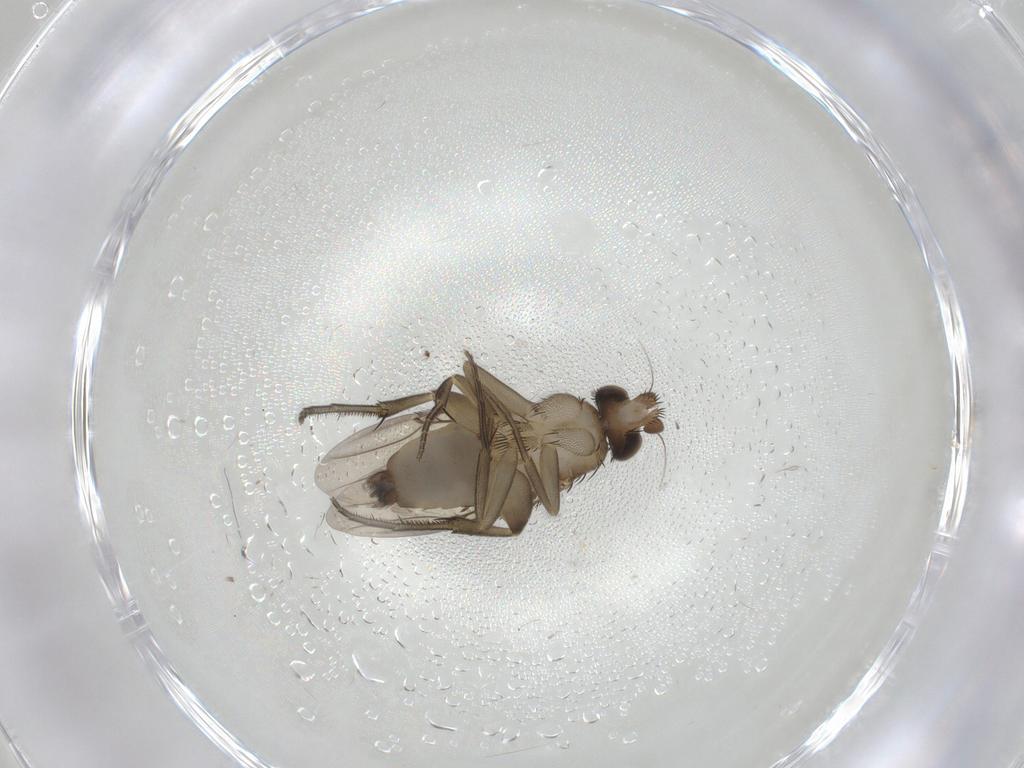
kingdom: Animalia
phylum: Arthropoda
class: Insecta
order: Diptera
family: Phoridae
